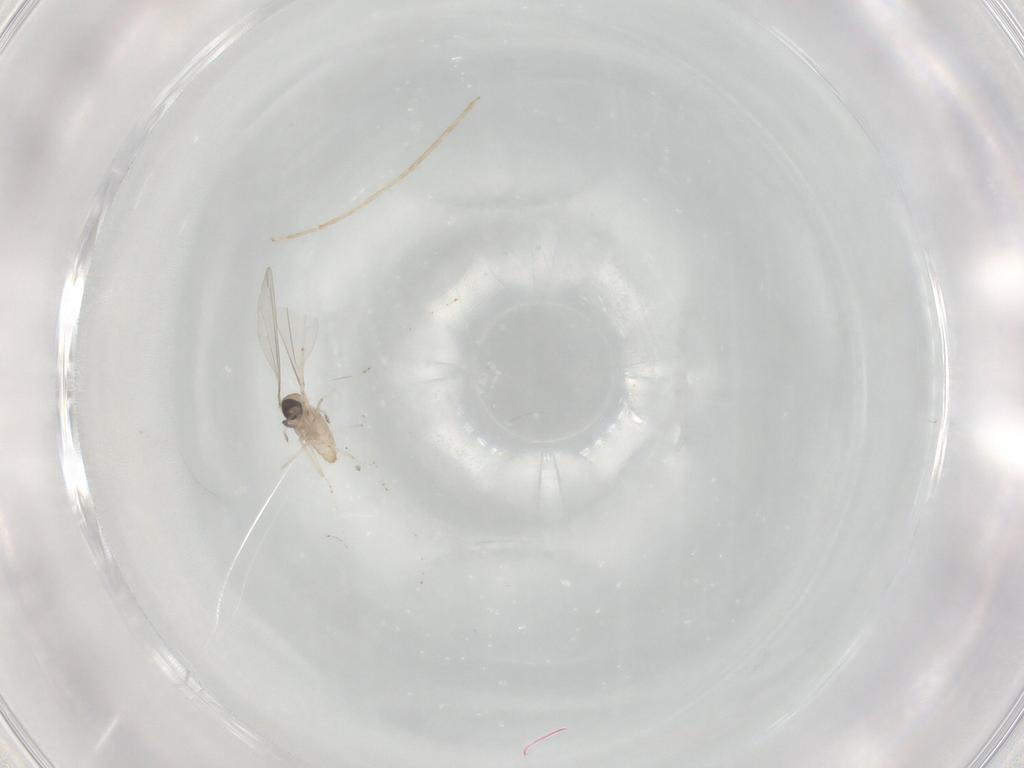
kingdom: Animalia
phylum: Arthropoda
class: Insecta
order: Diptera
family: Cecidomyiidae
